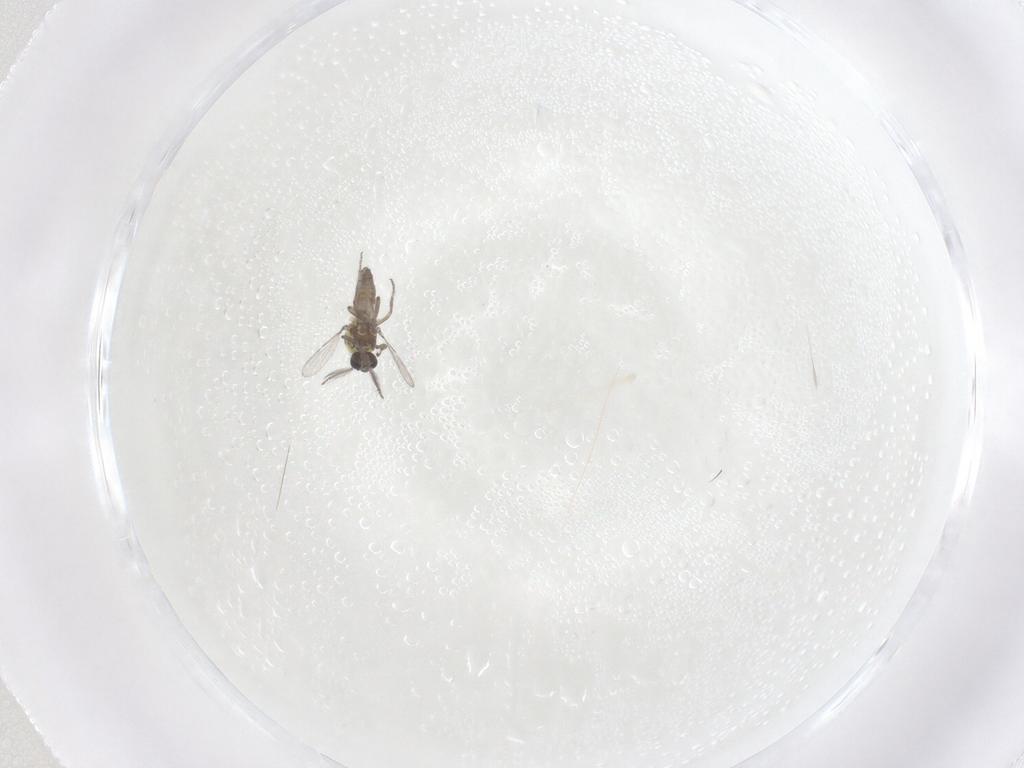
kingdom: Animalia
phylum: Arthropoda
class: Insecta
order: Diptera
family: Ceratopogonidae
